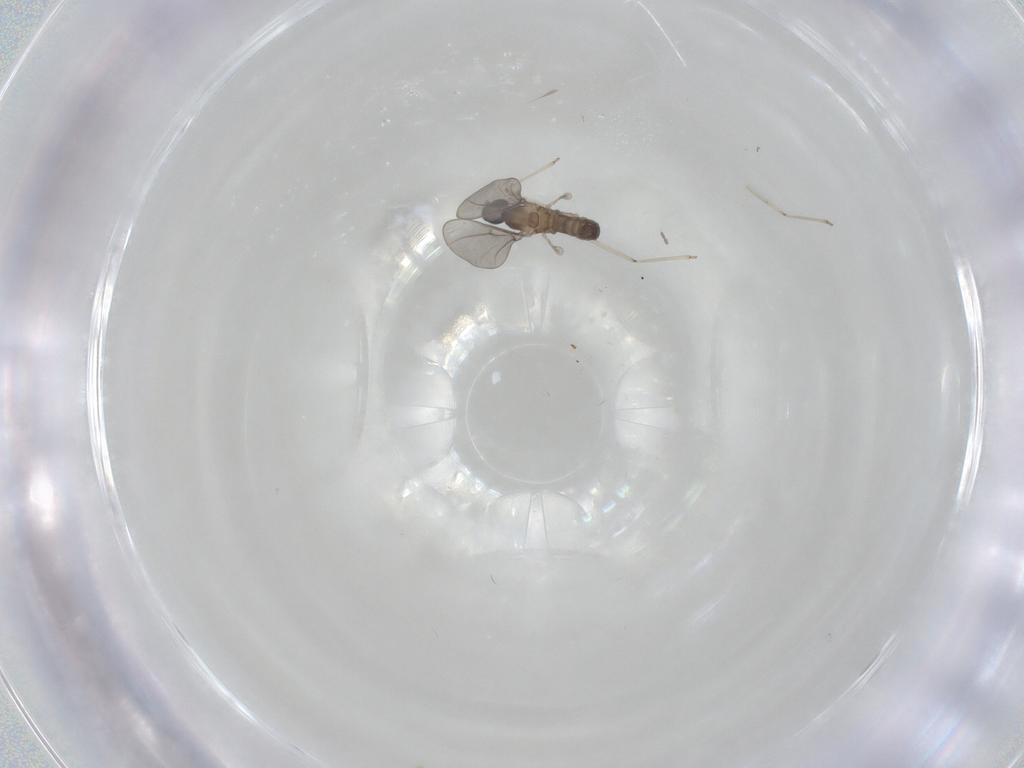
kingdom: Animalia
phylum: Arthropoda
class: Insecta
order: Diptera
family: Cecidomyiidae
